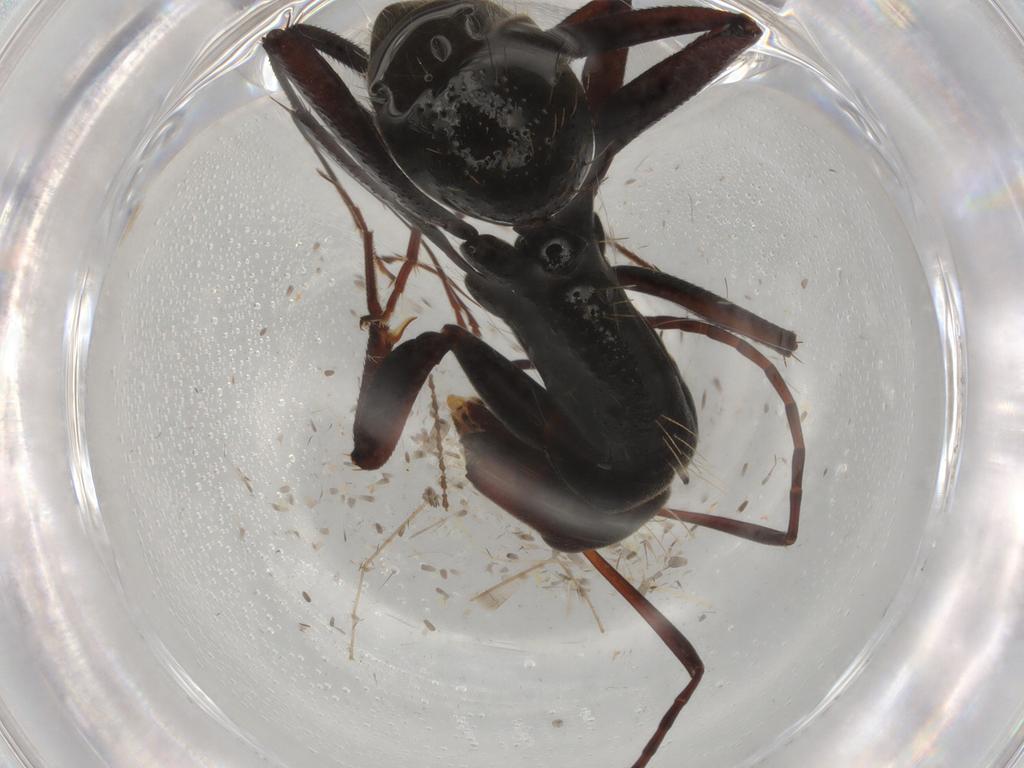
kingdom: Animalia
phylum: Arthropoda
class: Insecta
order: Hymenoptera
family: Formicidae
